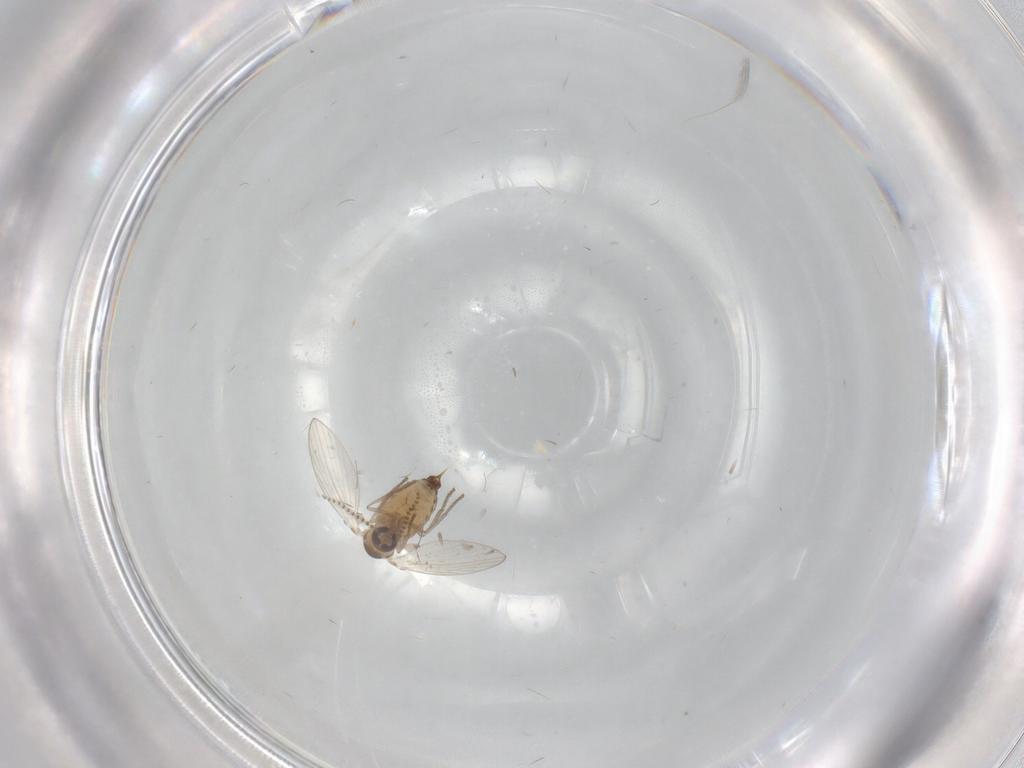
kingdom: Animalia
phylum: Arthropoda
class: Insecta
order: Diptera
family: Psychodidae
